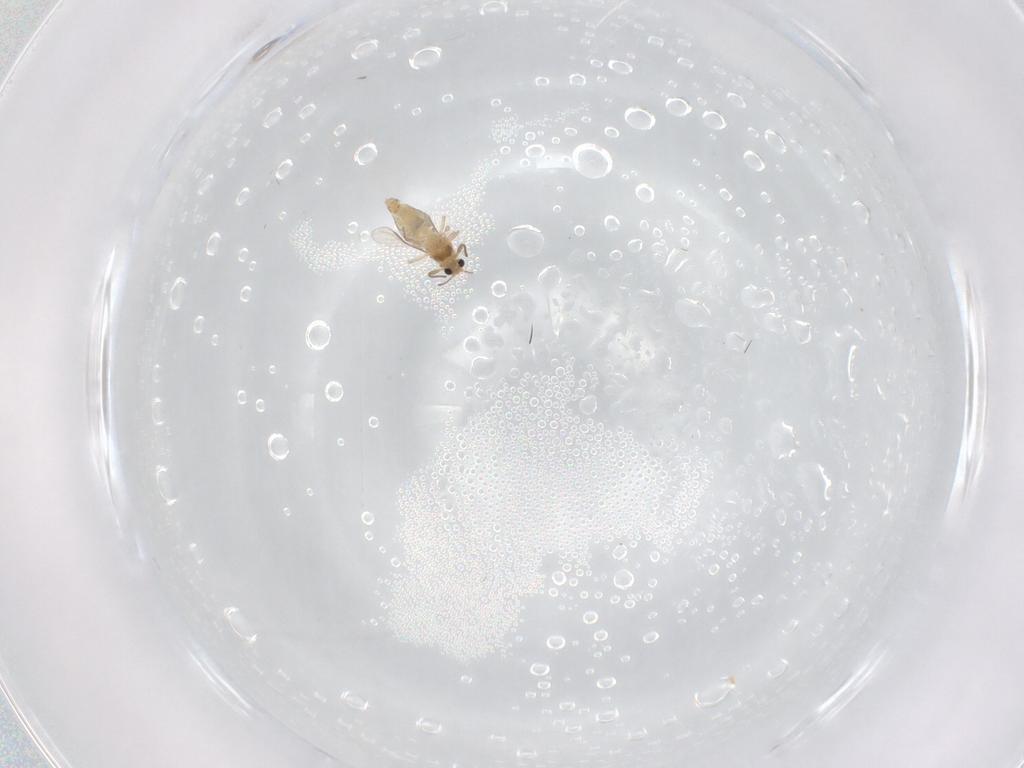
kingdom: Animalia
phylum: Arthropoda
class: Insecta
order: Diptera
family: Chironomidae
